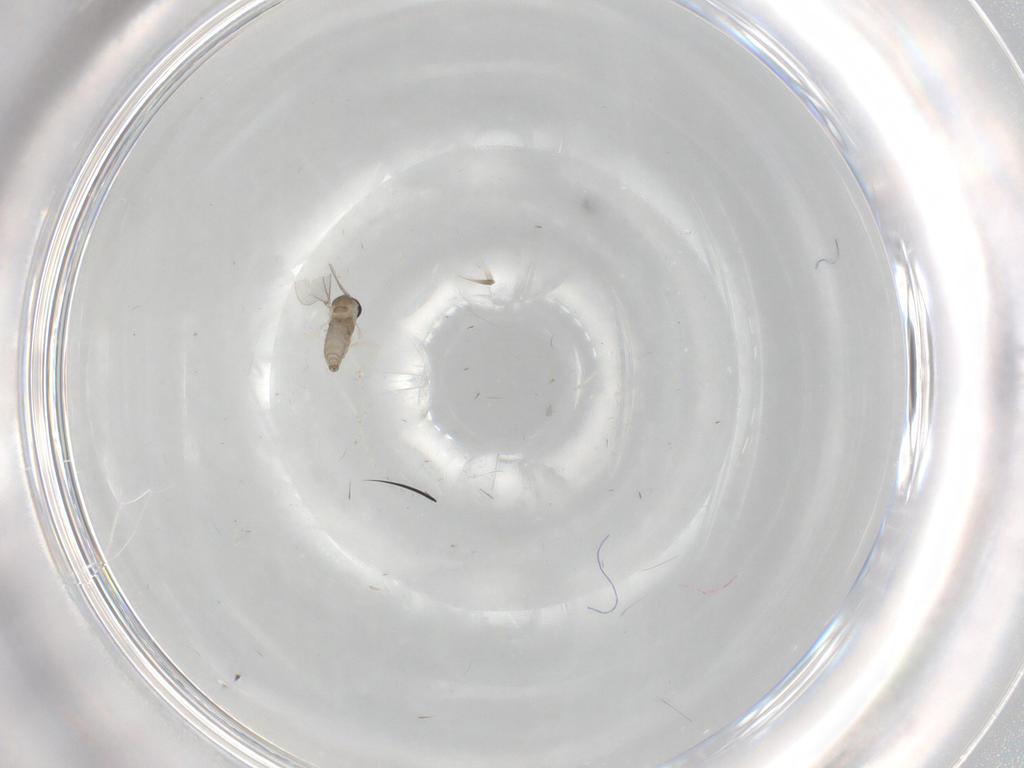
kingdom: Animalia
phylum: Arthropoda
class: Insecta
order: Diptera
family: Cecidomyiidae
